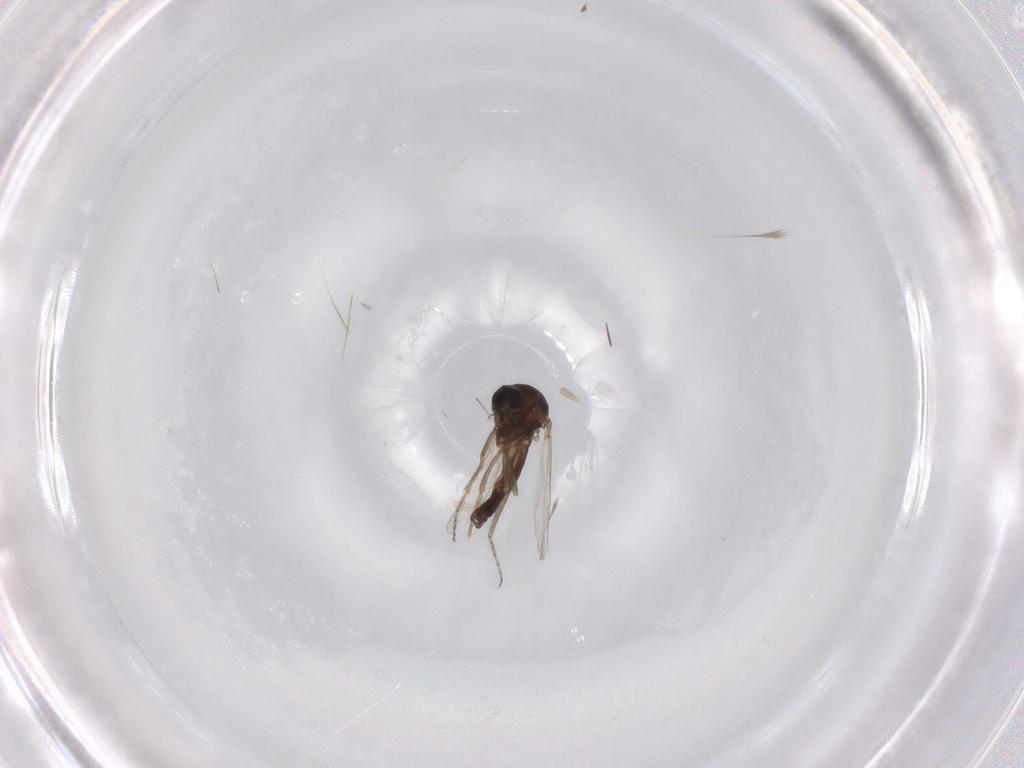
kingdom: Animalia
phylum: Arthropoda
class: Insecta
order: Diptera
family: Ceratopogonidae
